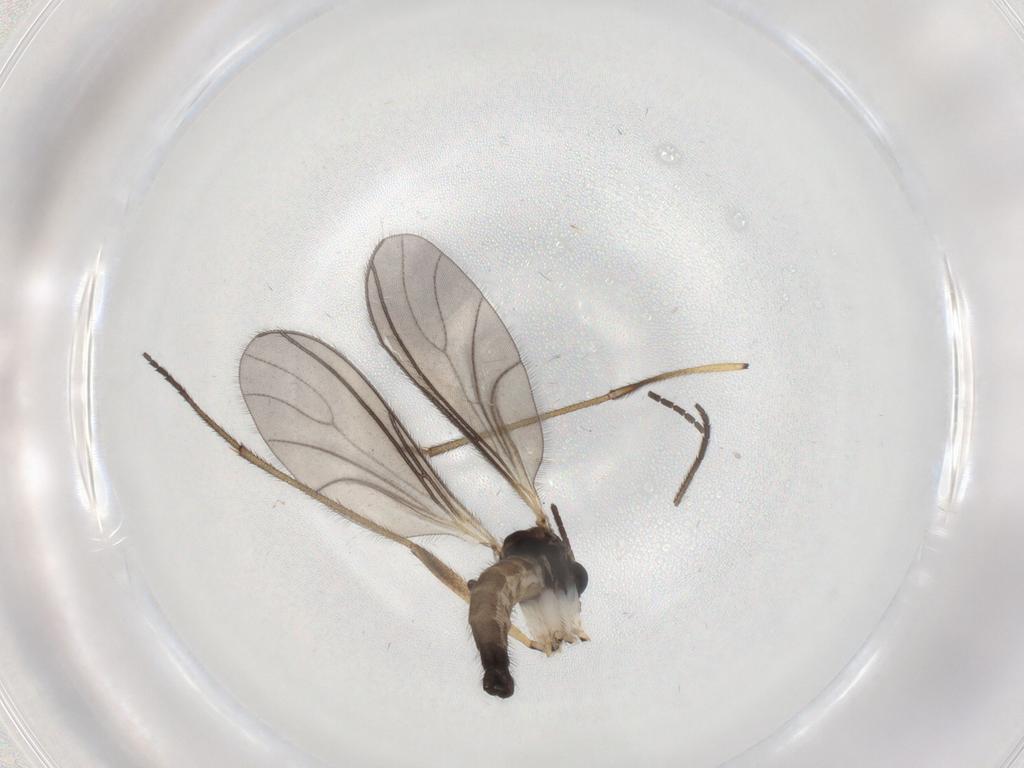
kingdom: Animalia
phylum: Arthropoda
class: Insecta
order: Diptera
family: Sciaridae
